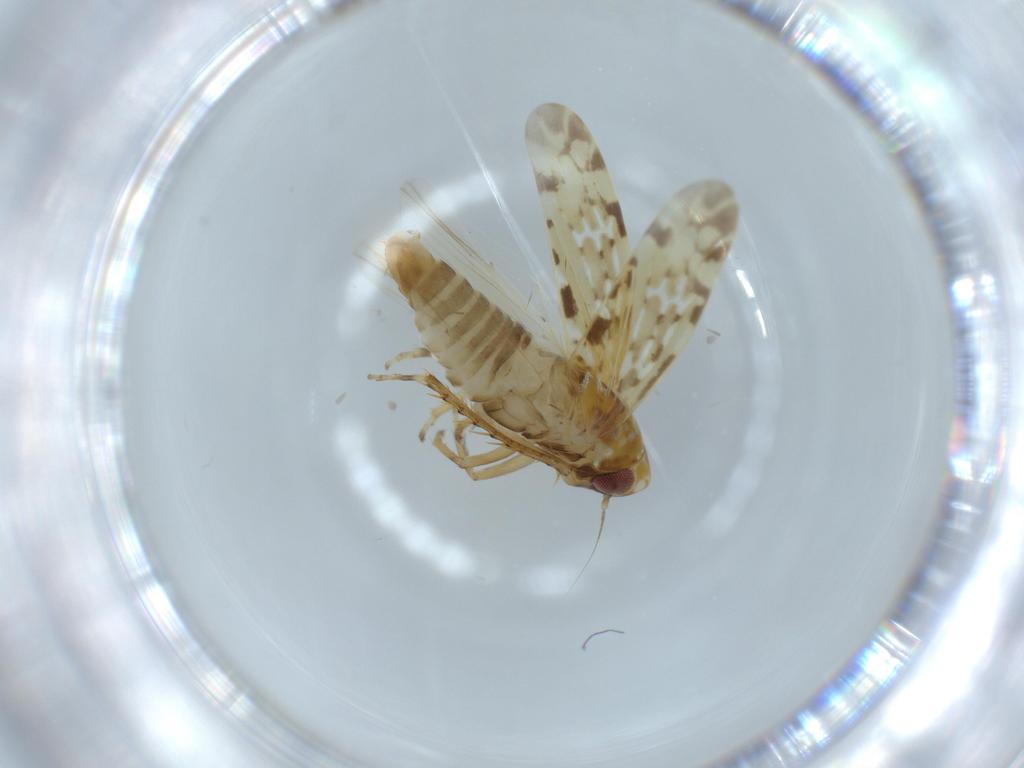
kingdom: Animalia
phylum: Arthropoda
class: Insecta
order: Hemiptera
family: Cicadellidae
